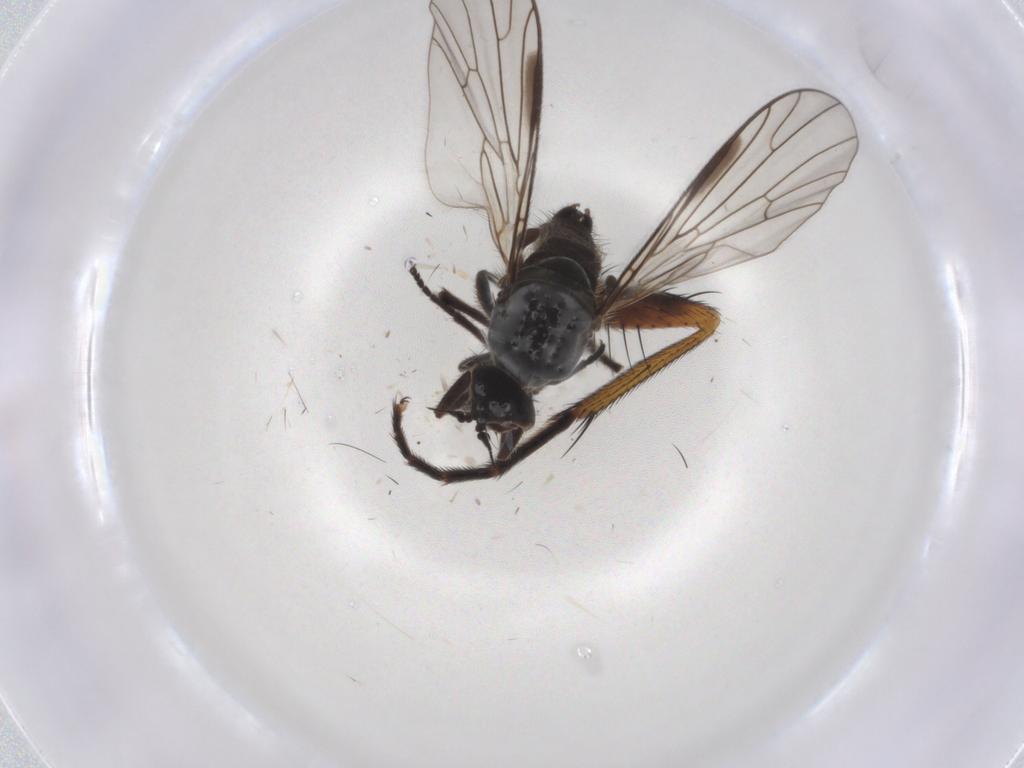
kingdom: Animalia
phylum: Arthropoda
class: Insecta
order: Diptera
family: Empididae
